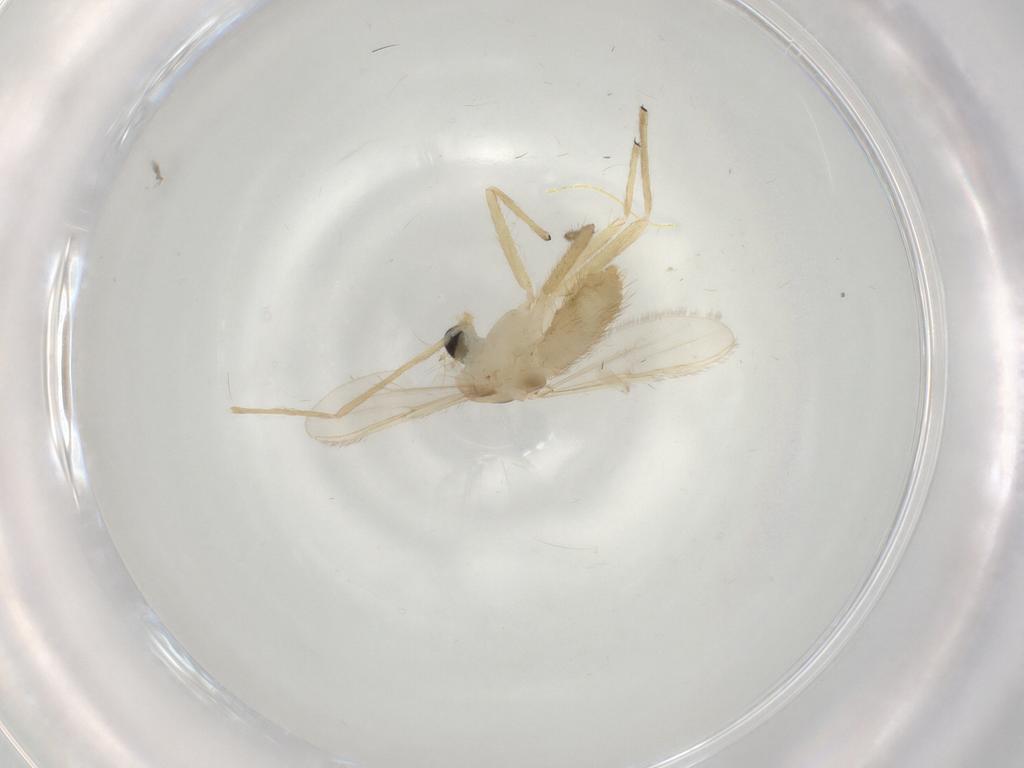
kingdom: Animalia
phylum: Arthropoda
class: Insecta
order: Diptera
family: Chironomidae
